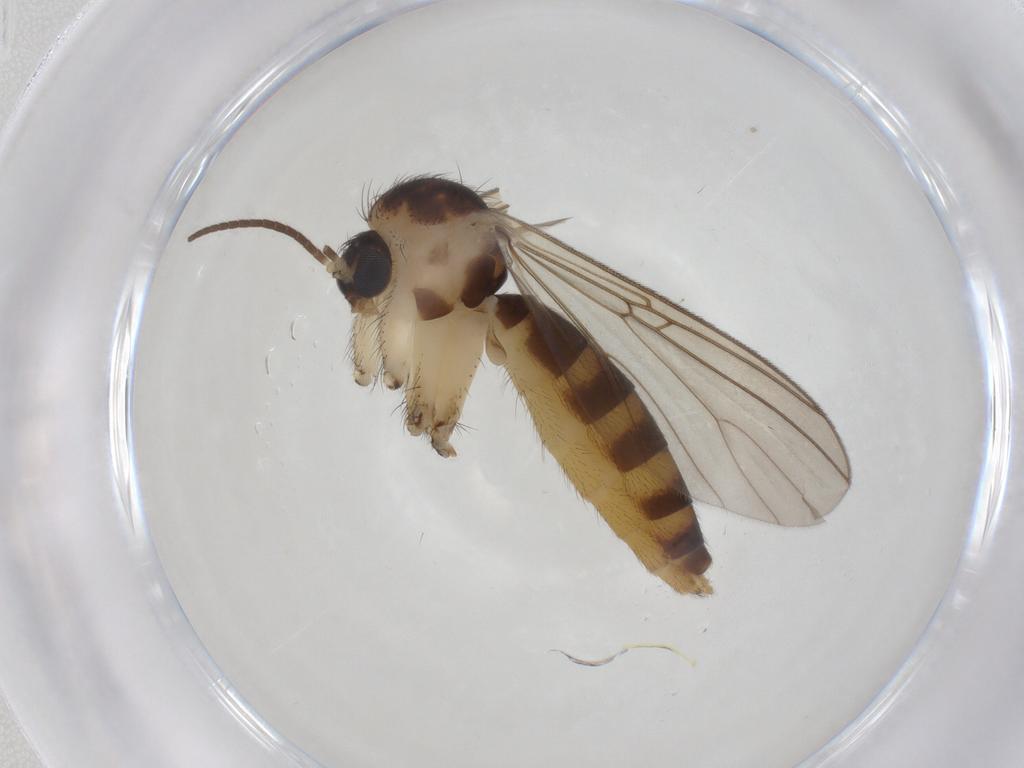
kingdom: Animalia
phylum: Arthropoda
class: Insecta
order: Diptera
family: Mycetophilidae
